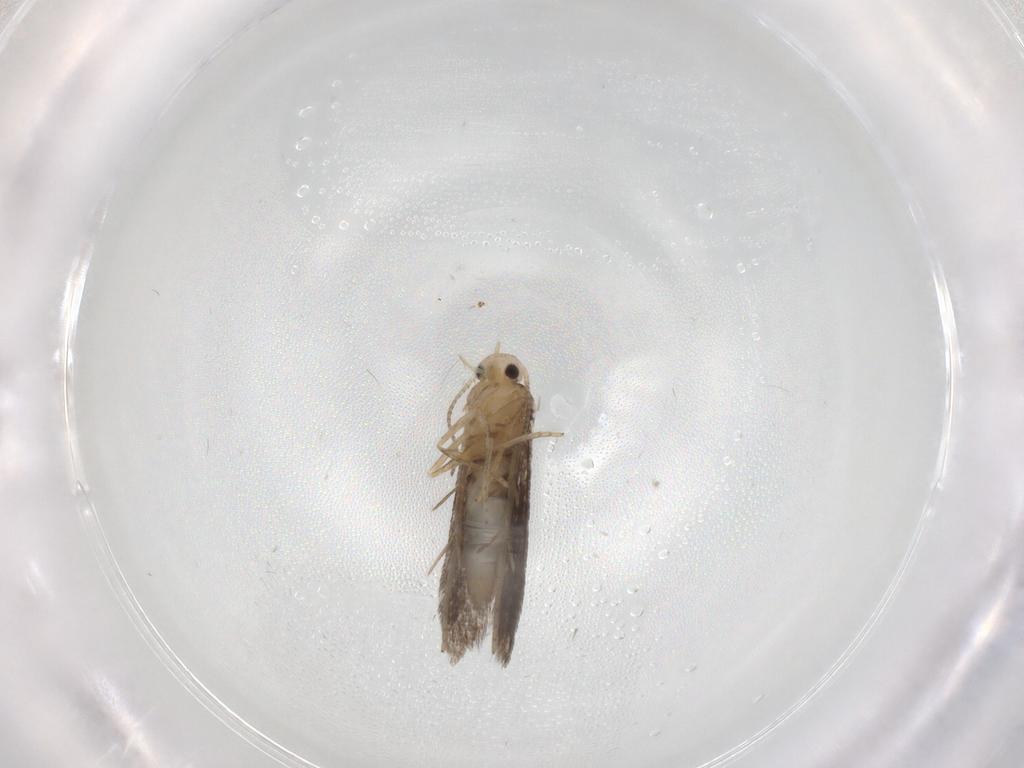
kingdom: Animalia
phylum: Arthropoda
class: Insecta
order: Lepidoptera
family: Schreckensteiniidae
